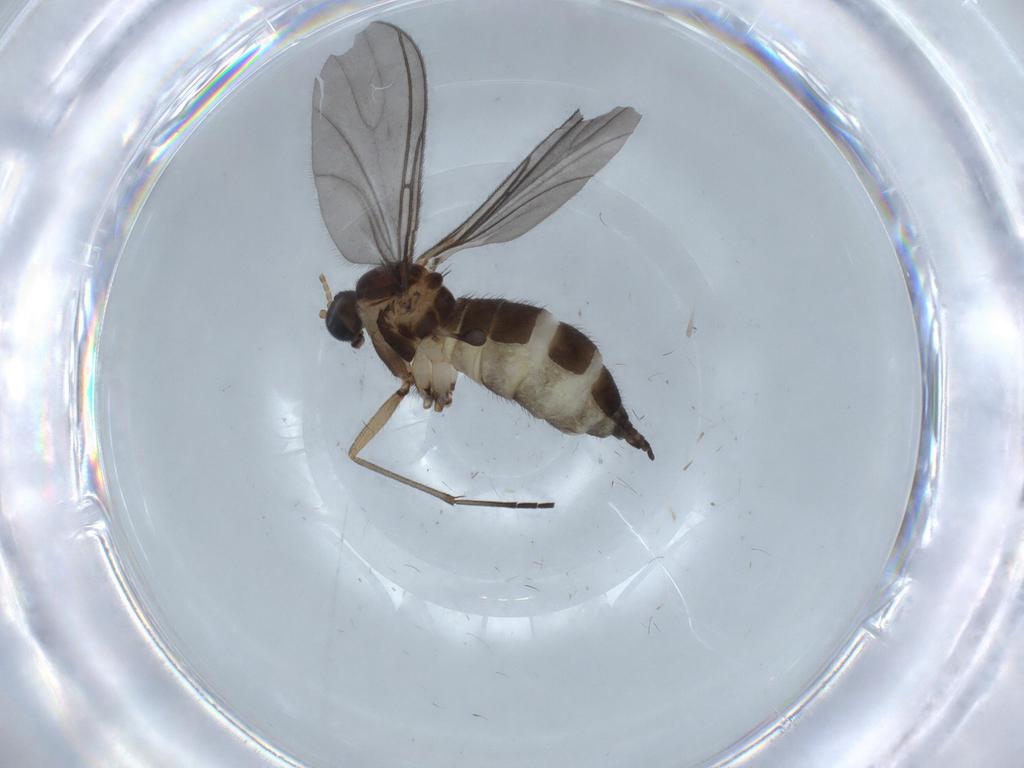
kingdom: Animalia
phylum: Arthropoda
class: Insecta
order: Diptera
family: Sciaridae
